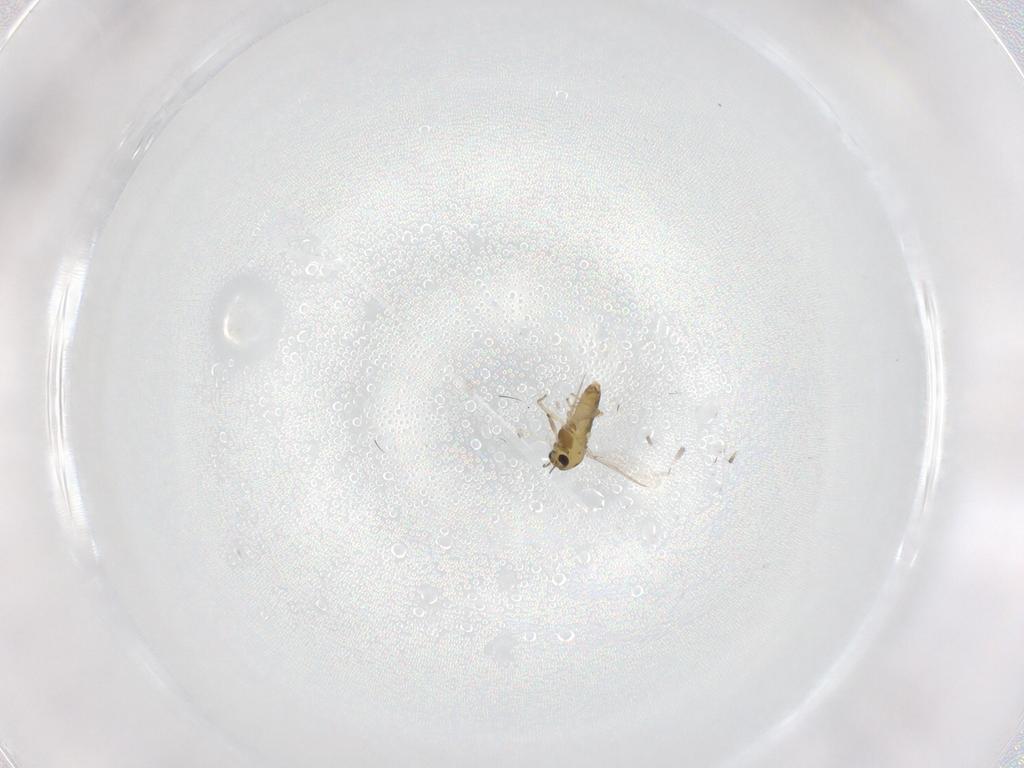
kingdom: Animalia
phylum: Arthropoda
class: Insecta
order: Diptera
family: Chironomidae
